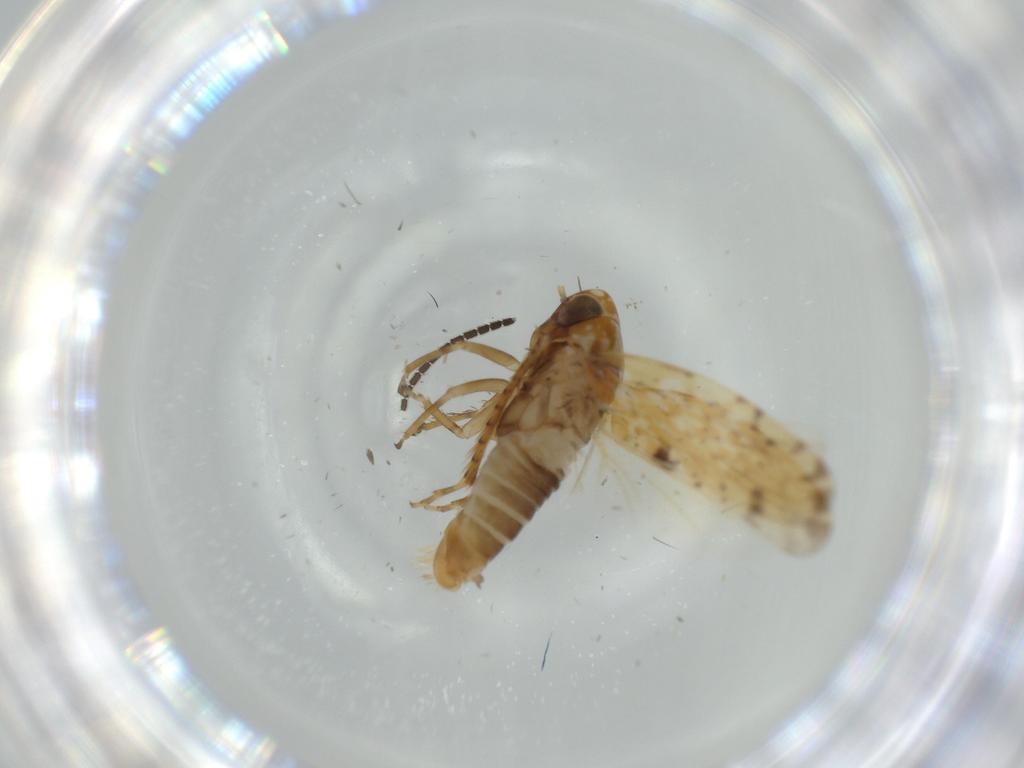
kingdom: Animalia
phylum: Arthropoda
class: Insecta
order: Hemiptera
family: Cicadellidae
